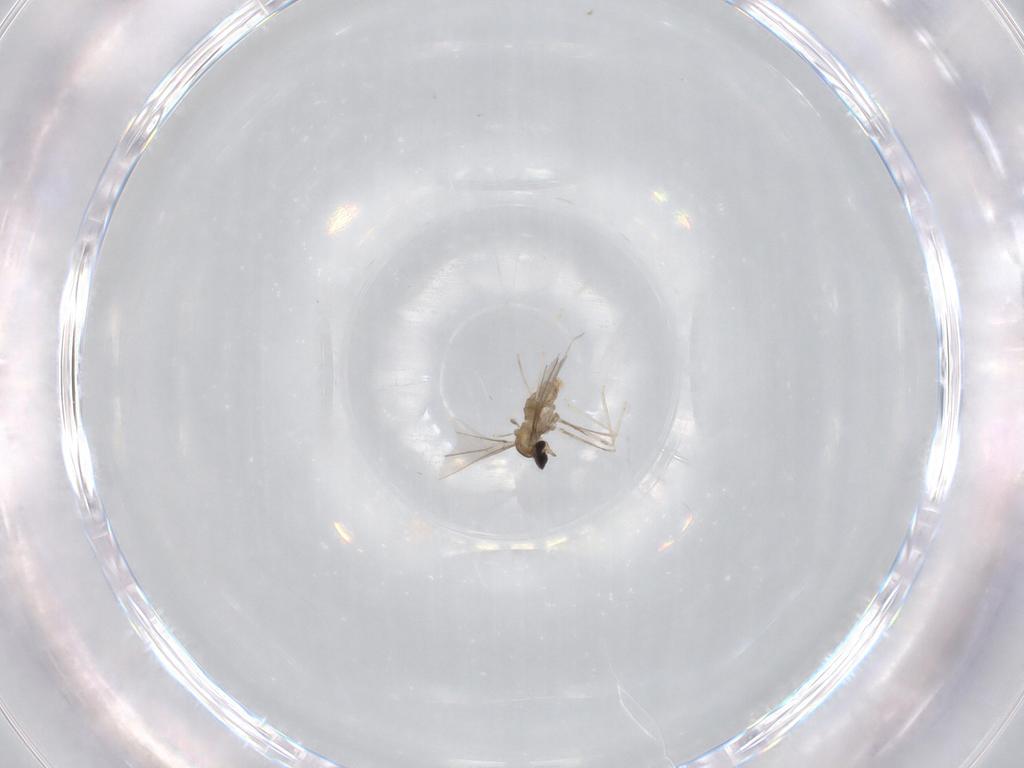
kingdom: Animalia
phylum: Arthropoda
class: Insecta
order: Diptera
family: Cecidomyiidae
